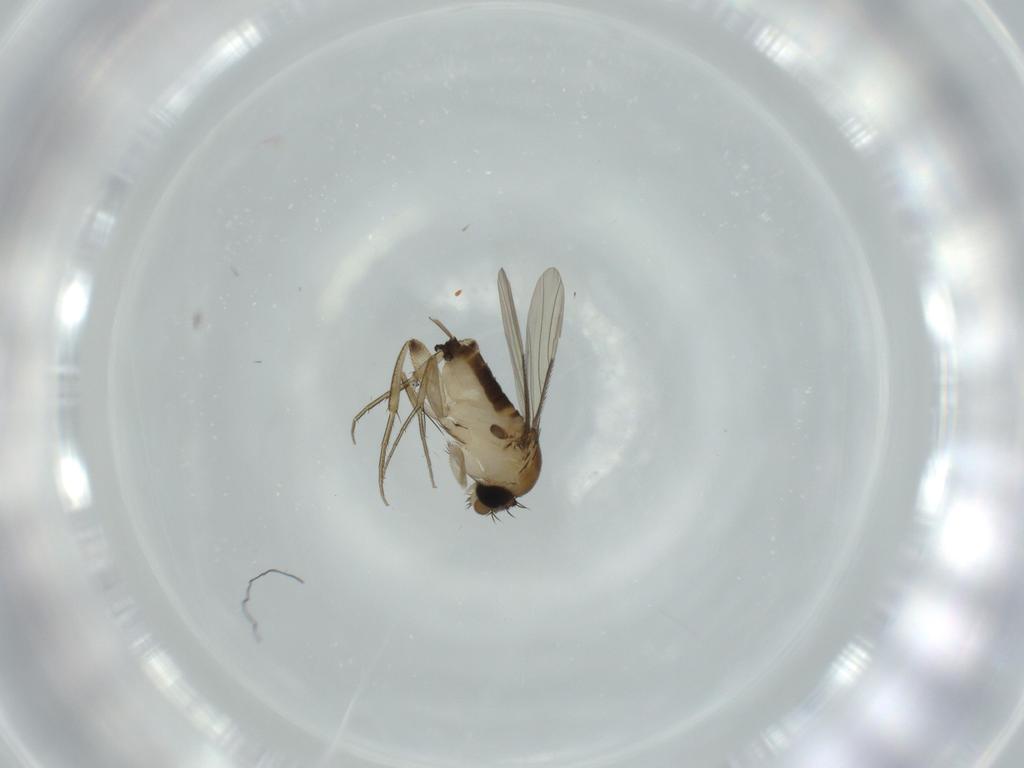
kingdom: Animalia
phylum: Arthropoda
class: Insecta
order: Diptera
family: Phoridae
